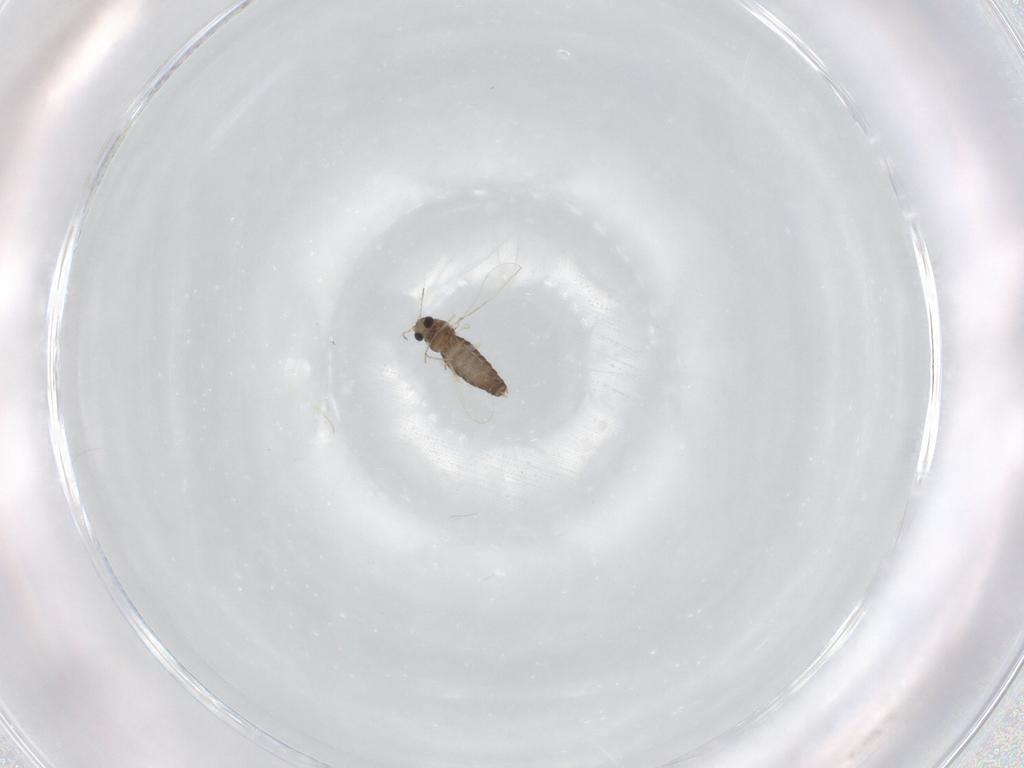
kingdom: Animalia
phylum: Arthropoda
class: Insecta
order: Diptera
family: Chironomidae
